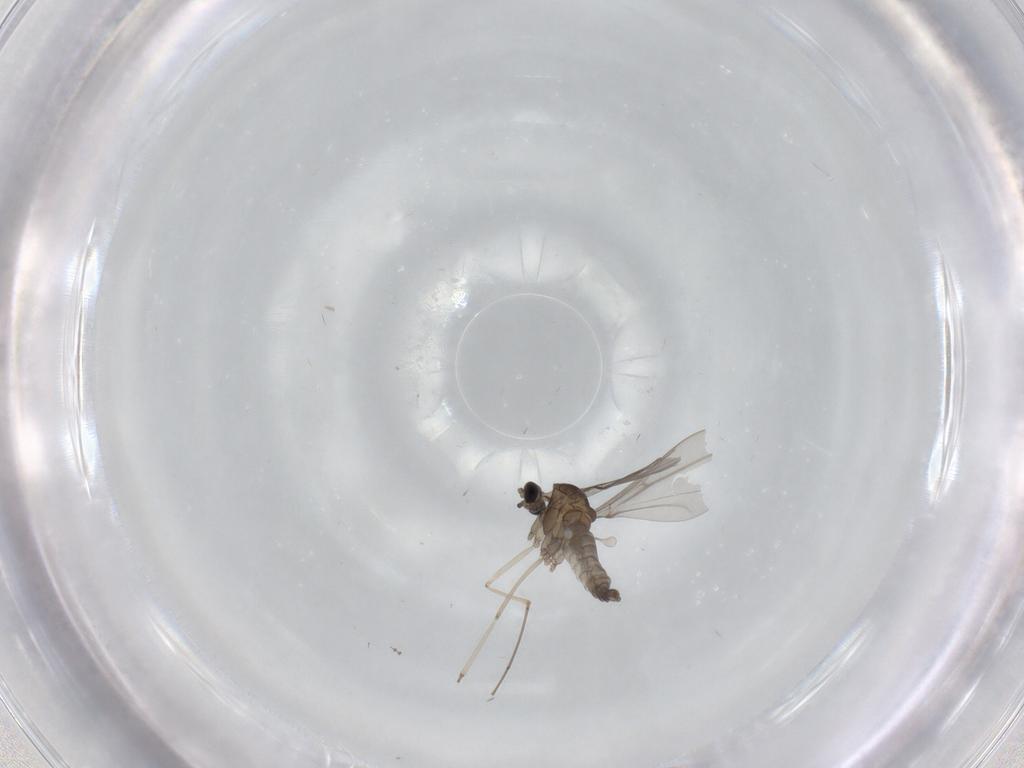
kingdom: Animalia
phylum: Arthropoda
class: Insecta
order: Diptera
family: Cecidomyiidae
